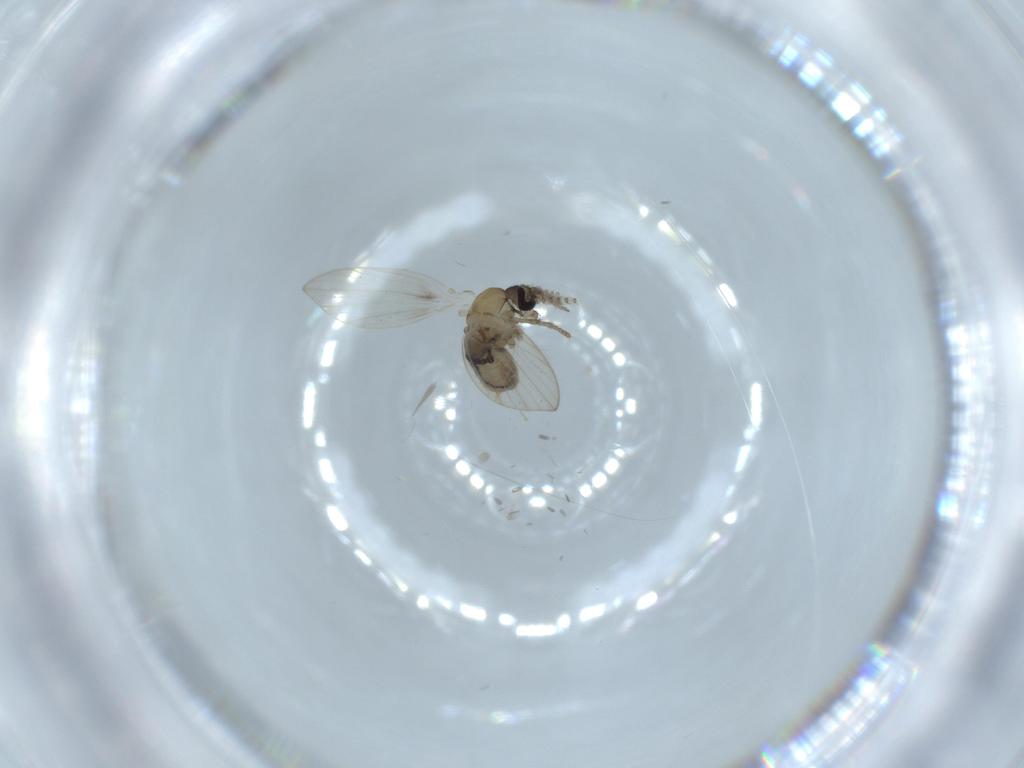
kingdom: Animalia
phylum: Arthropoda
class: Insecta
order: Diptera
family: Psychodidae
